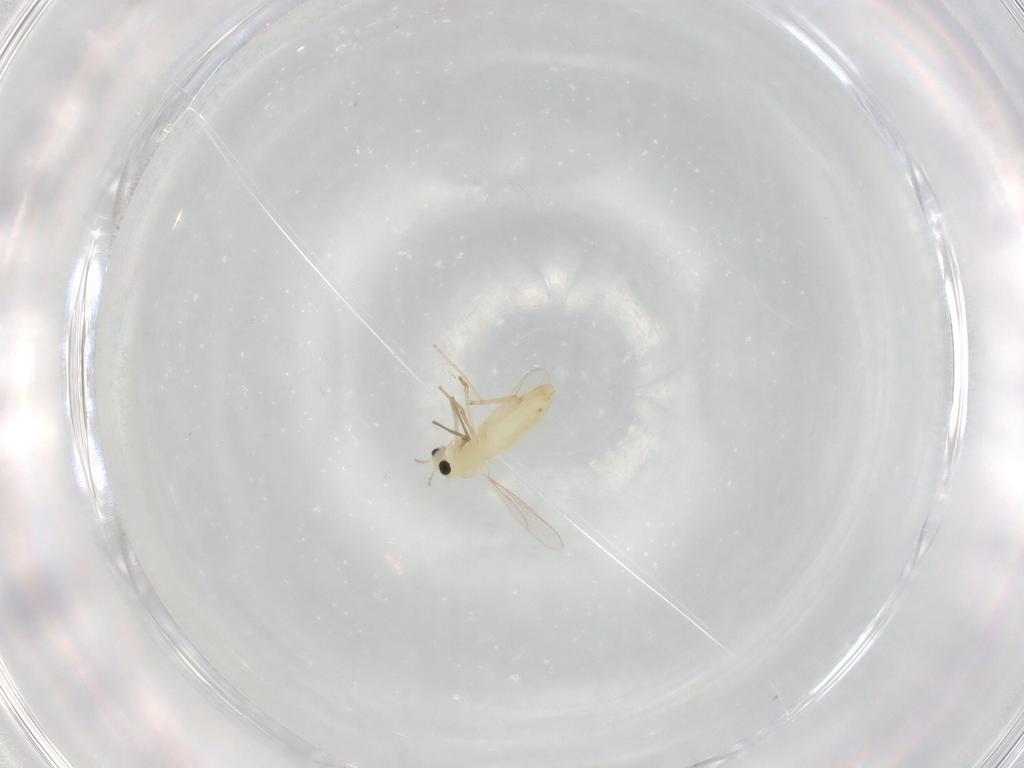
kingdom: Animalia
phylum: Arthropoda
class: Insecta
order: Diptera
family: Chironomidae
